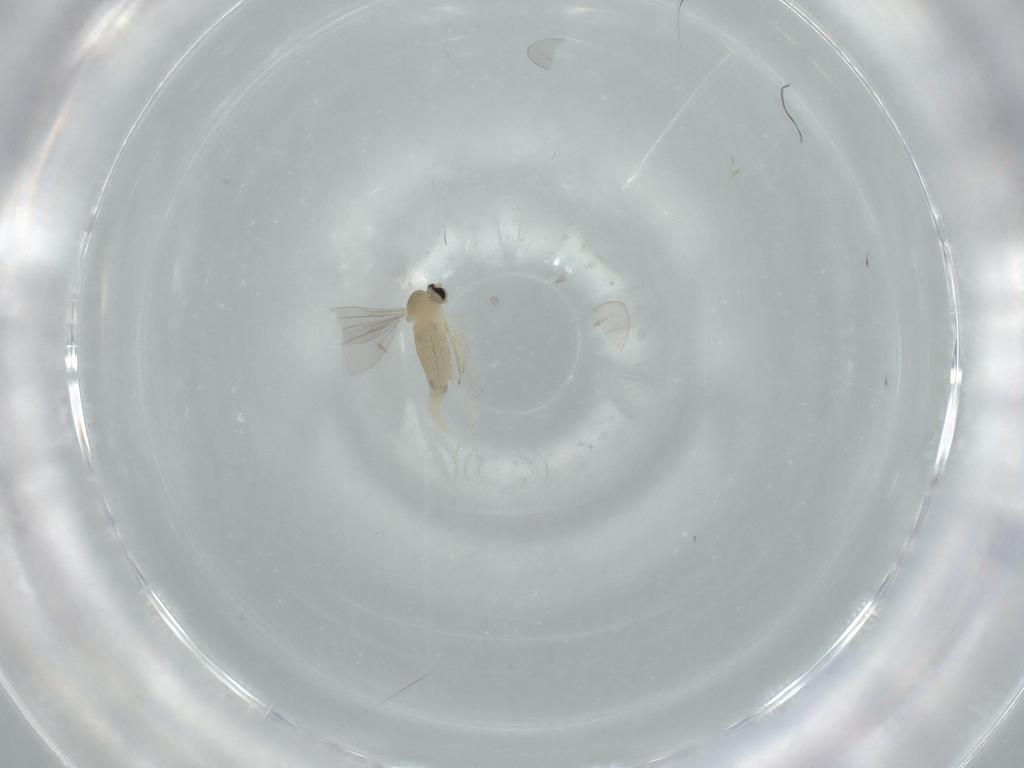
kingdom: Animalia
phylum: Arthropoda
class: Insecta
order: Diptera
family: Cecidomyiidae
